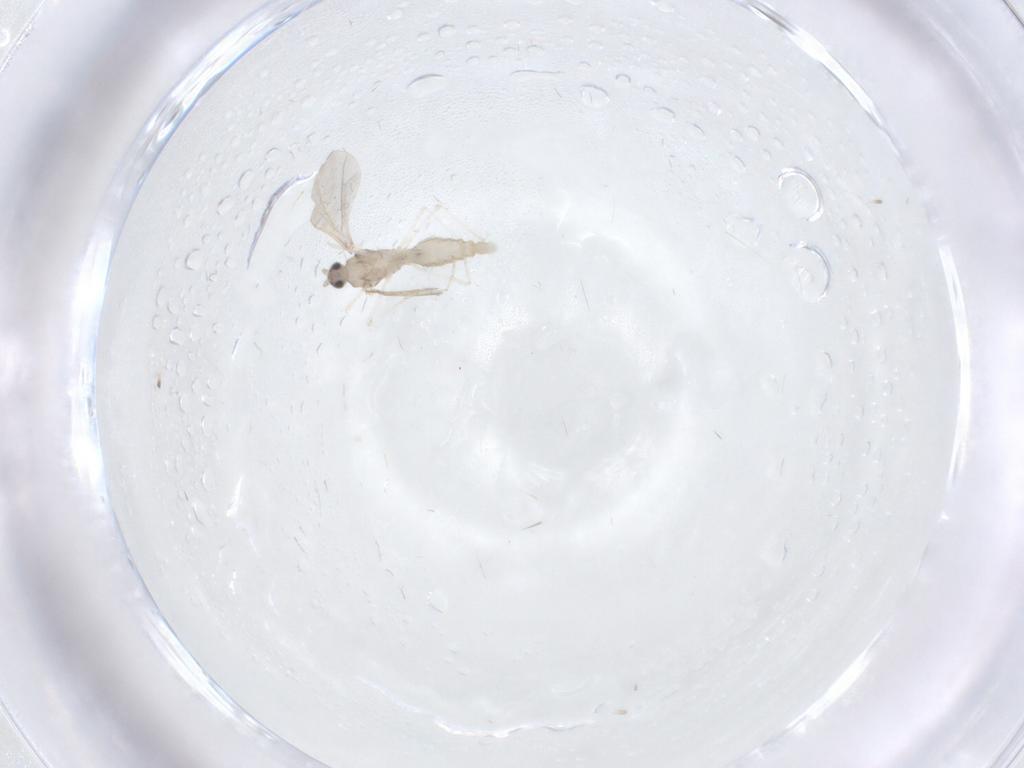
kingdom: Animalia
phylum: Arthropoda
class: Insecta
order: Diptera
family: Cecidomyiidae
